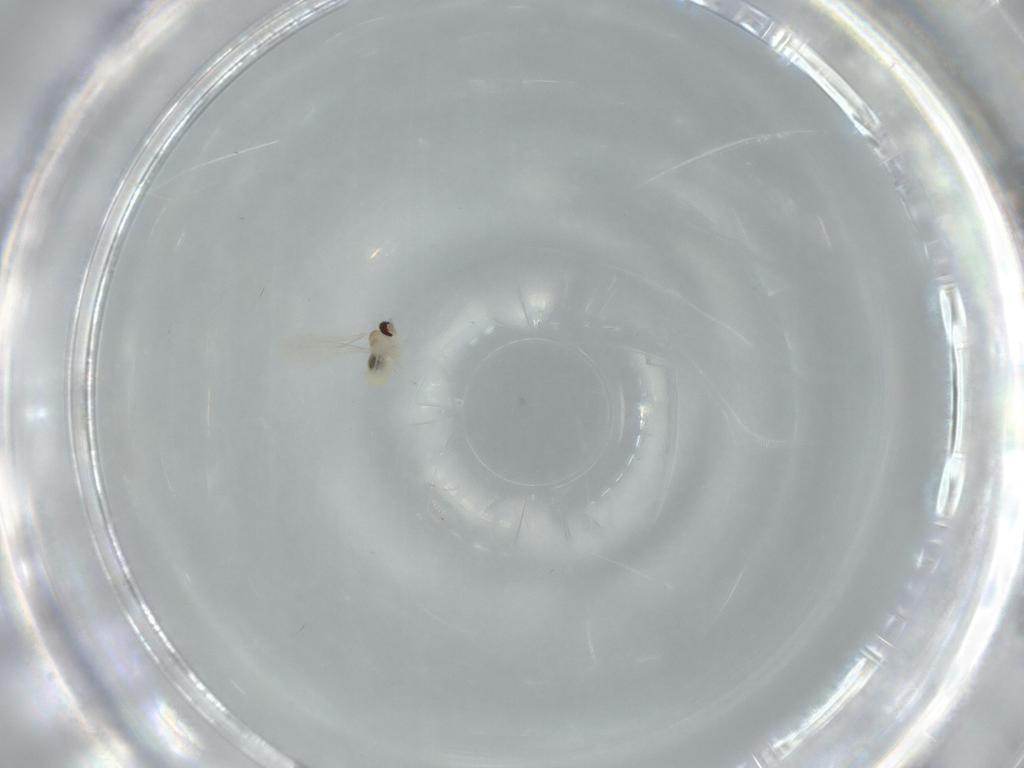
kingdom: Animalia
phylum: Arthropoda
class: Insecta
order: Diptera
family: Cecidomyiidae
